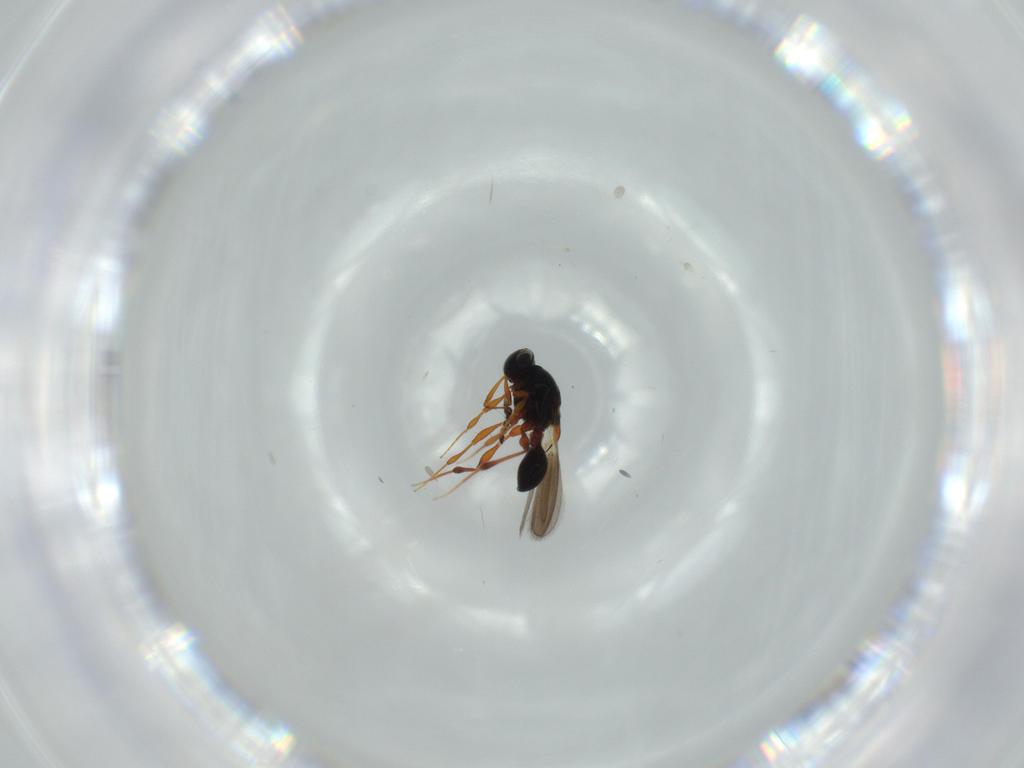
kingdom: Animalia
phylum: Arthropoda
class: Insecta
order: Hymenoptera
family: Platygastridae
